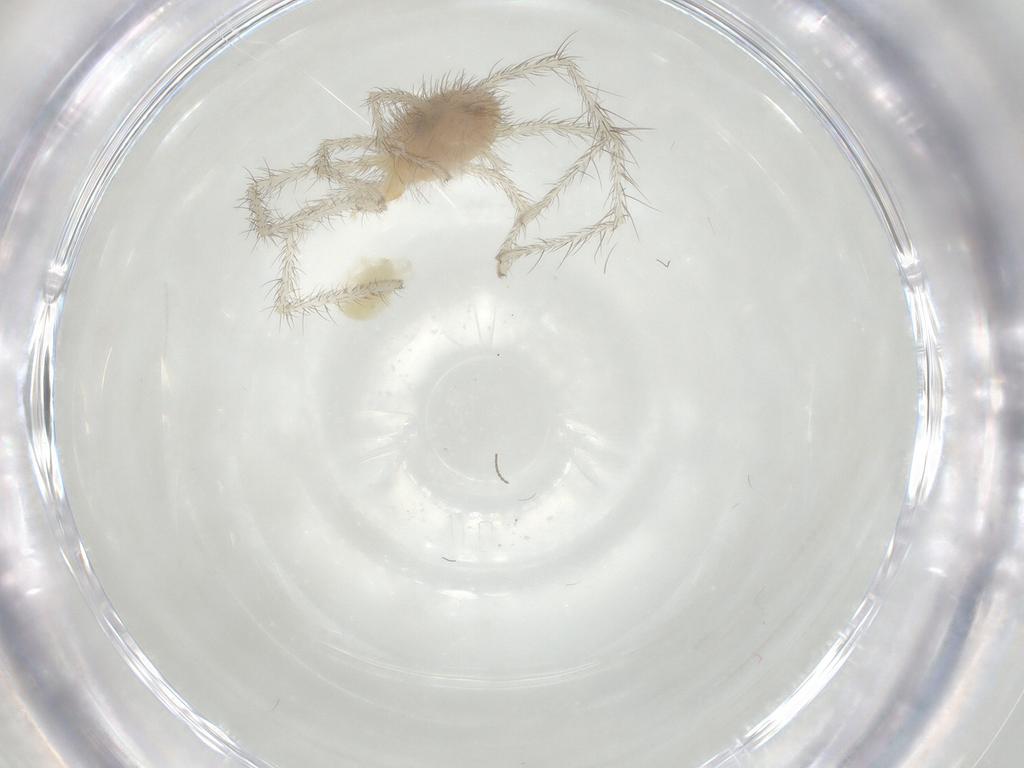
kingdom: Animalia
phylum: Arthropoda
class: Arachnida
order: Trombidiformes
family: Anystidae
